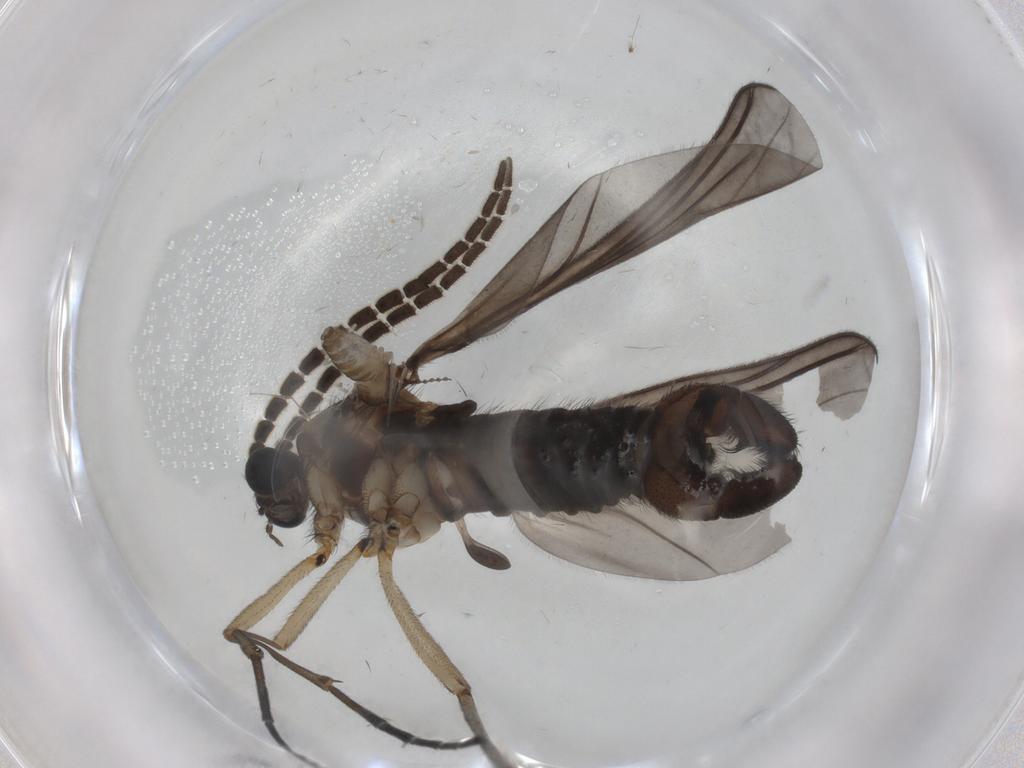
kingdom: Animalia
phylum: Arthropoda
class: Insecta
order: Diptera
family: Sciaridae
